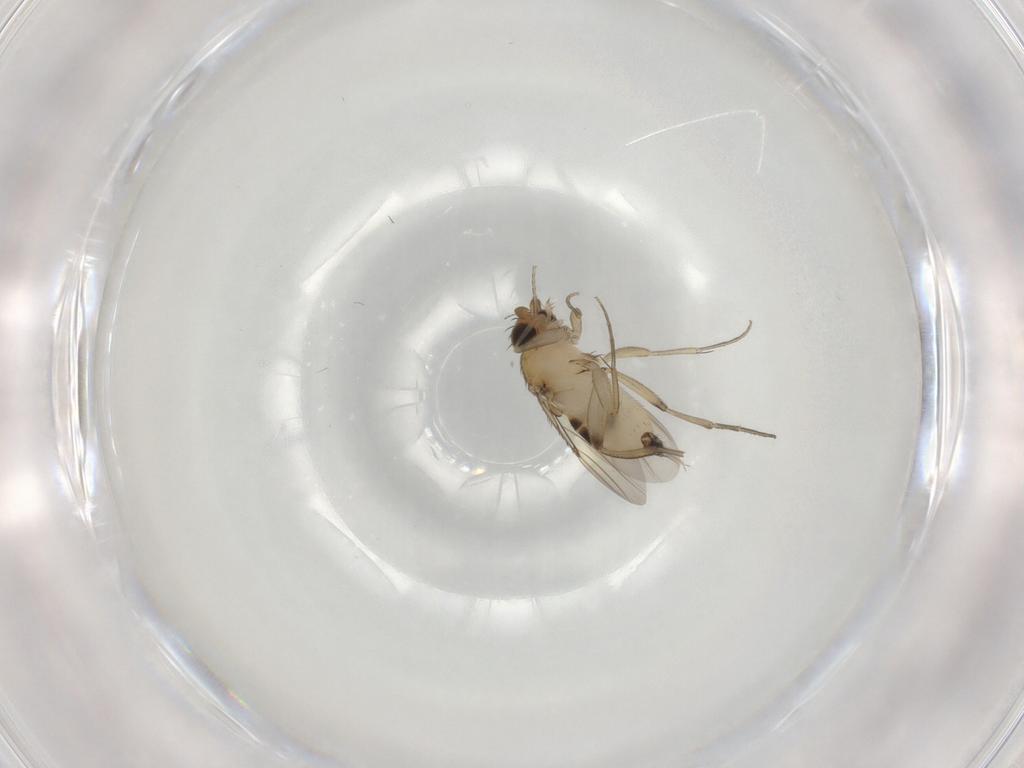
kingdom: Animalia
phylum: Arthropoda
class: Insecta
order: Diptera
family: Phoridae
